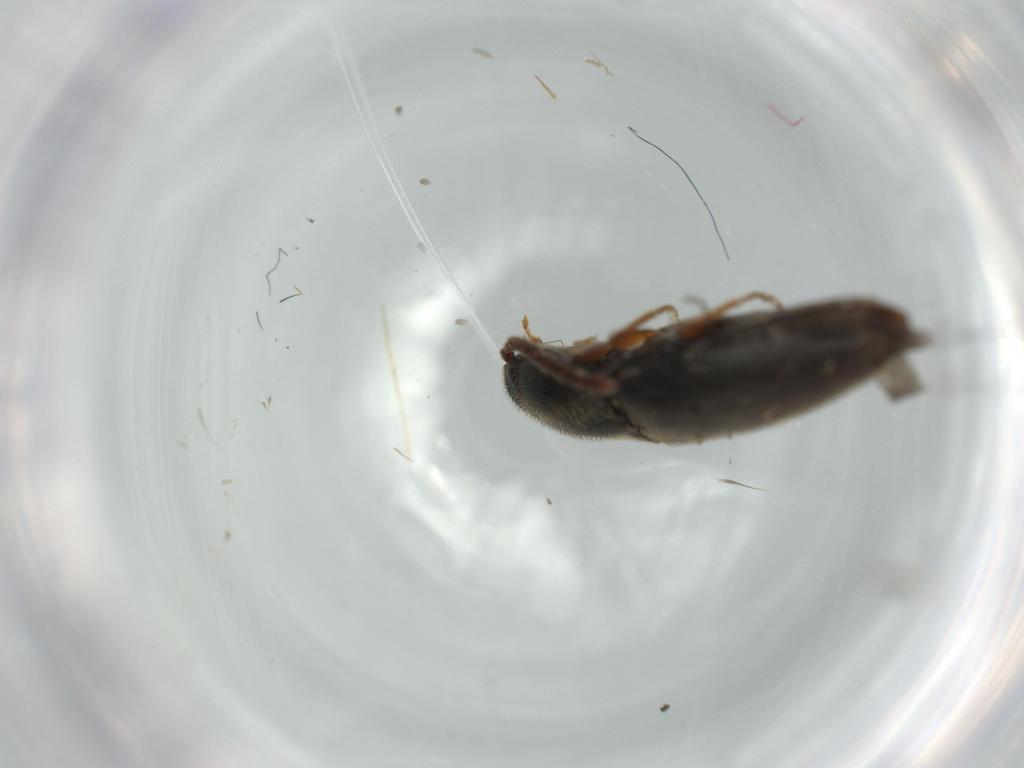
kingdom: Animalia
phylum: Arthropoda
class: Insecta
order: Coleoptera
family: Elateridae
